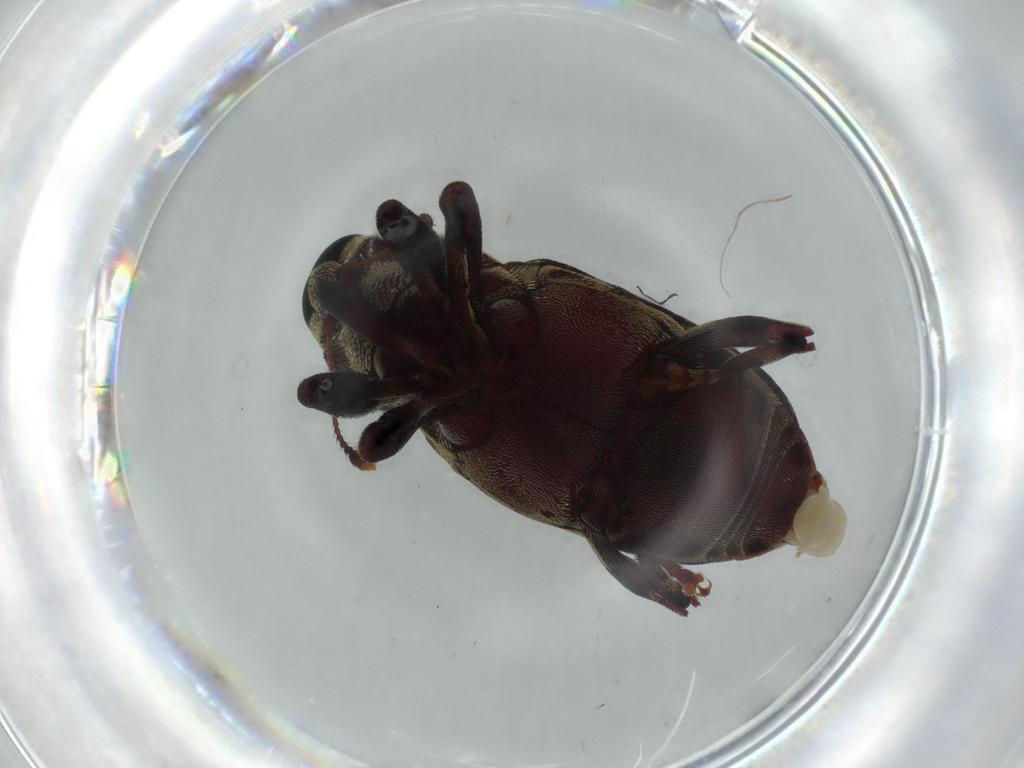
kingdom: Animalia
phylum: Arthropoda
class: Insecta
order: Coleoptera
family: Curculionidae
